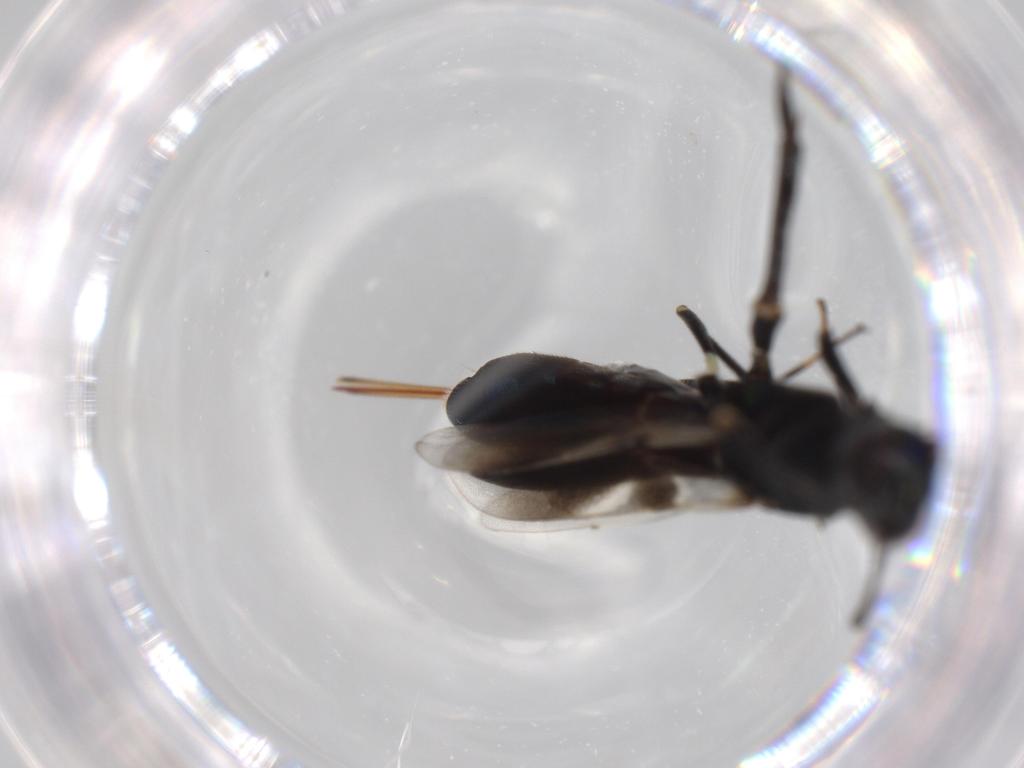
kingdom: Animalia
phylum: Arthropoda
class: Insecta
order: Hymenoptera
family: Eupelmidae
